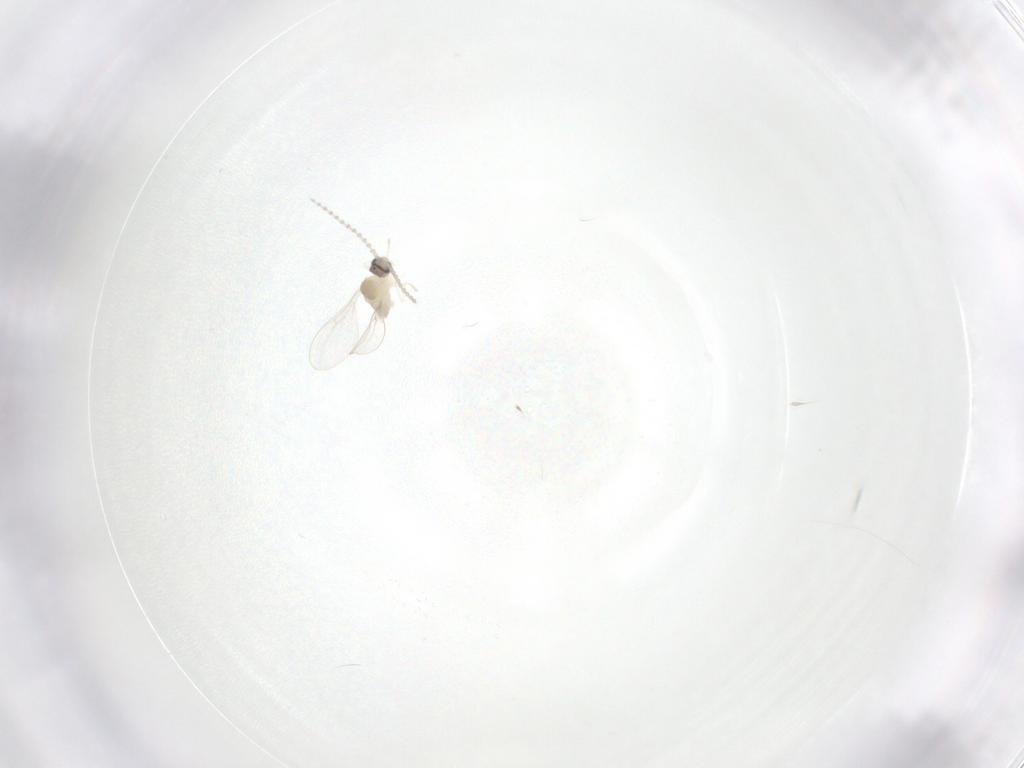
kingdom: Animalia
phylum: Arthropoda
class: Insecta
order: Diptera
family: Cecidomyiidae
